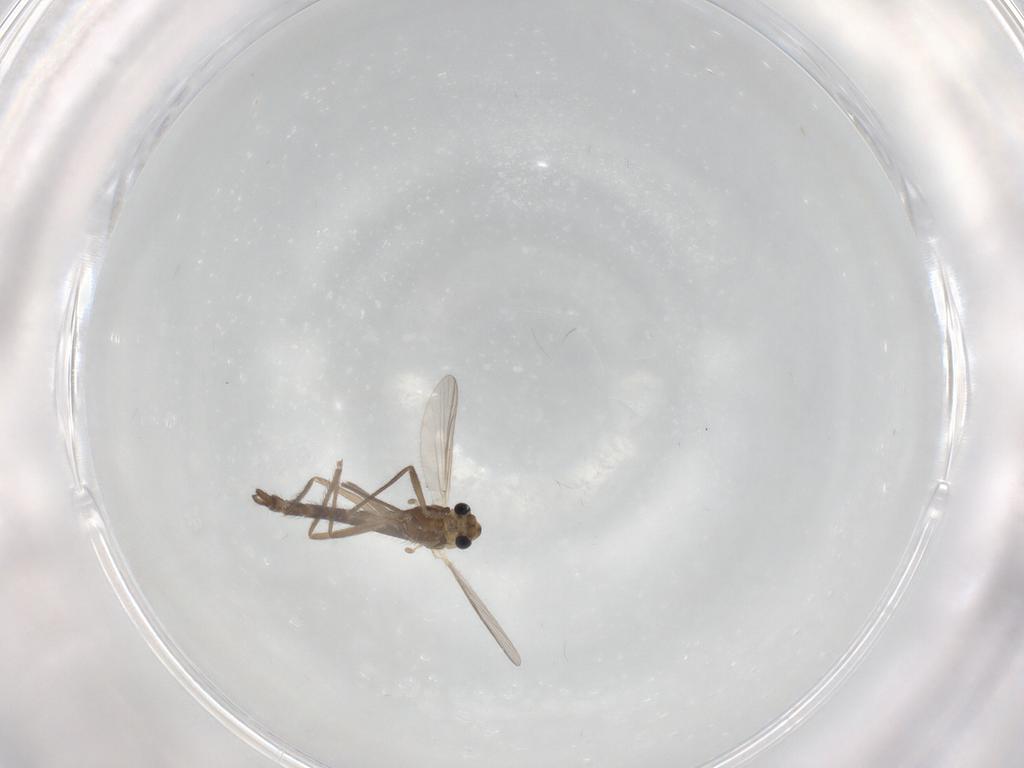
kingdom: Animalia
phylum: Arthropoda
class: Insecta
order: Diptera
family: Chironomidae
